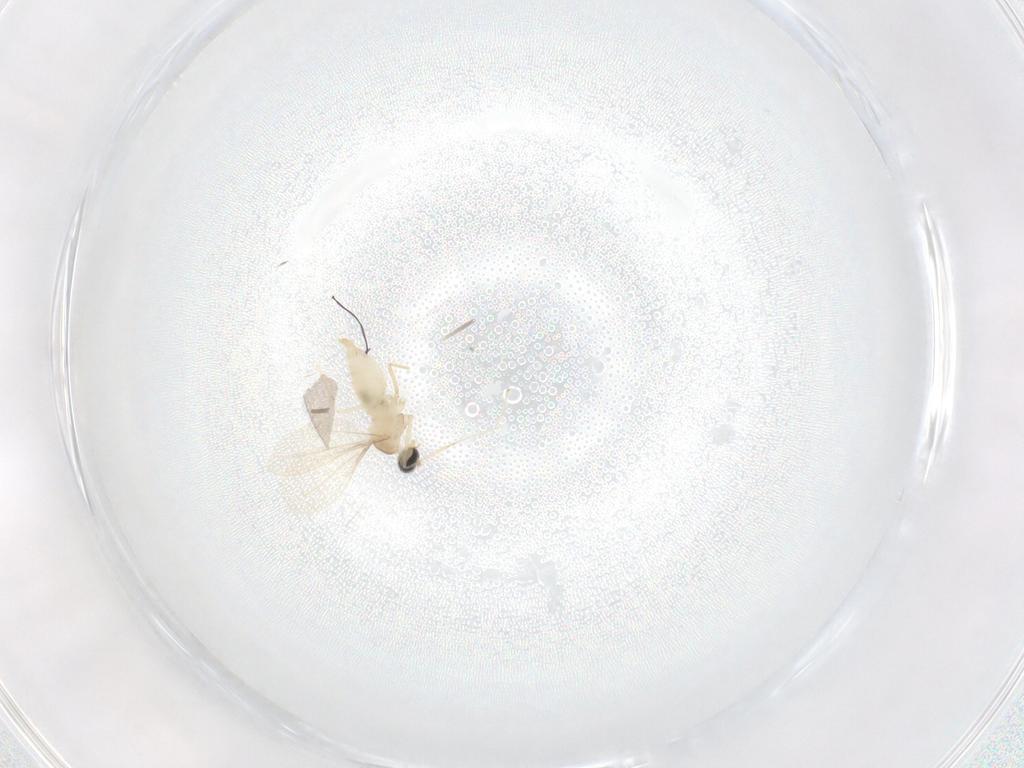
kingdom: Animalia
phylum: Arthropoda
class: Insecta
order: Diptera
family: Cecidomyiidae
